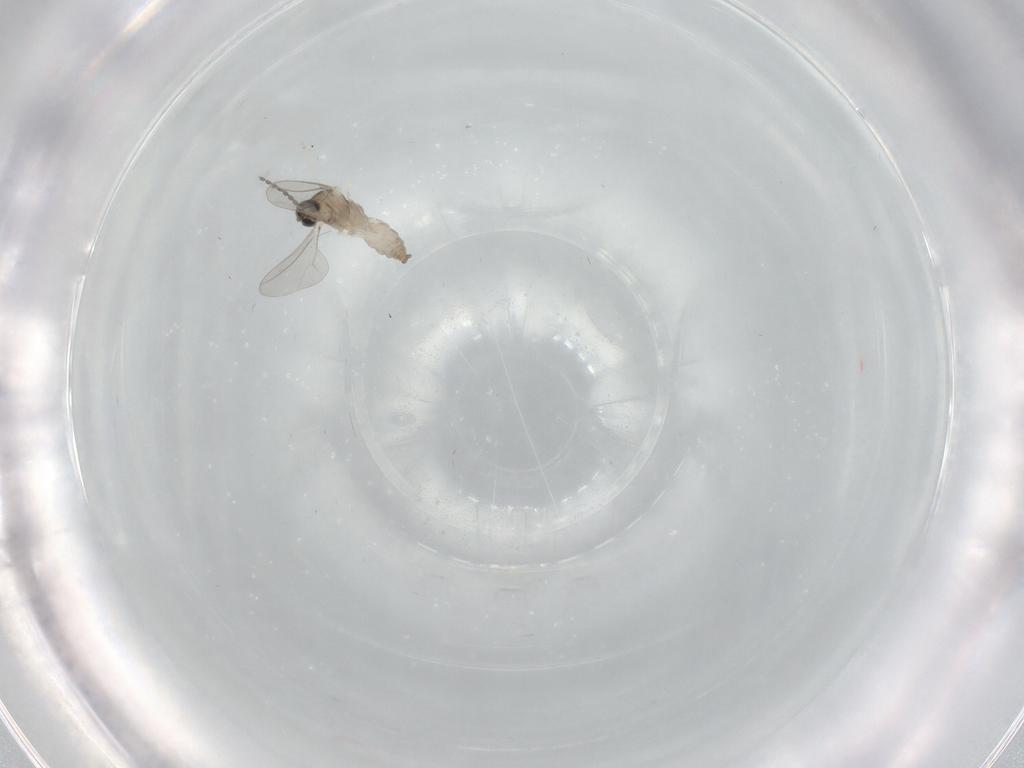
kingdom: Animalia
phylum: Arthropoda
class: Insecta
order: Diptera
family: Cecidomyiidae
